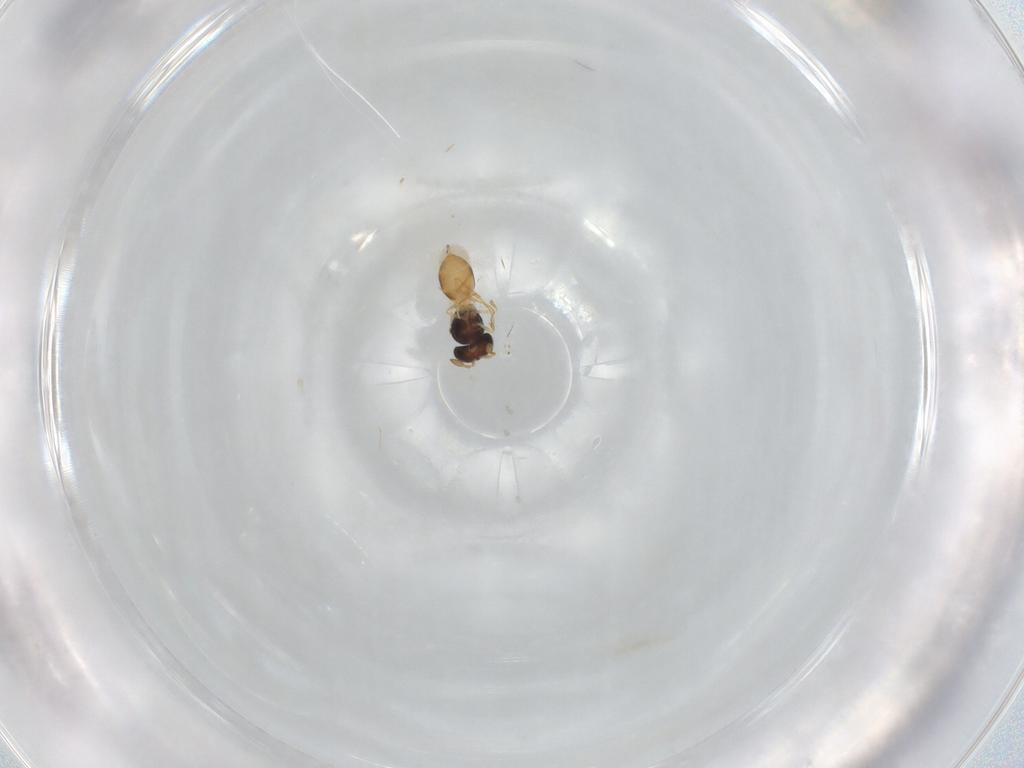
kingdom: Animalia
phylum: Arthropoda
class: Insecta
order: Hymenoptera
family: Scelionidae
